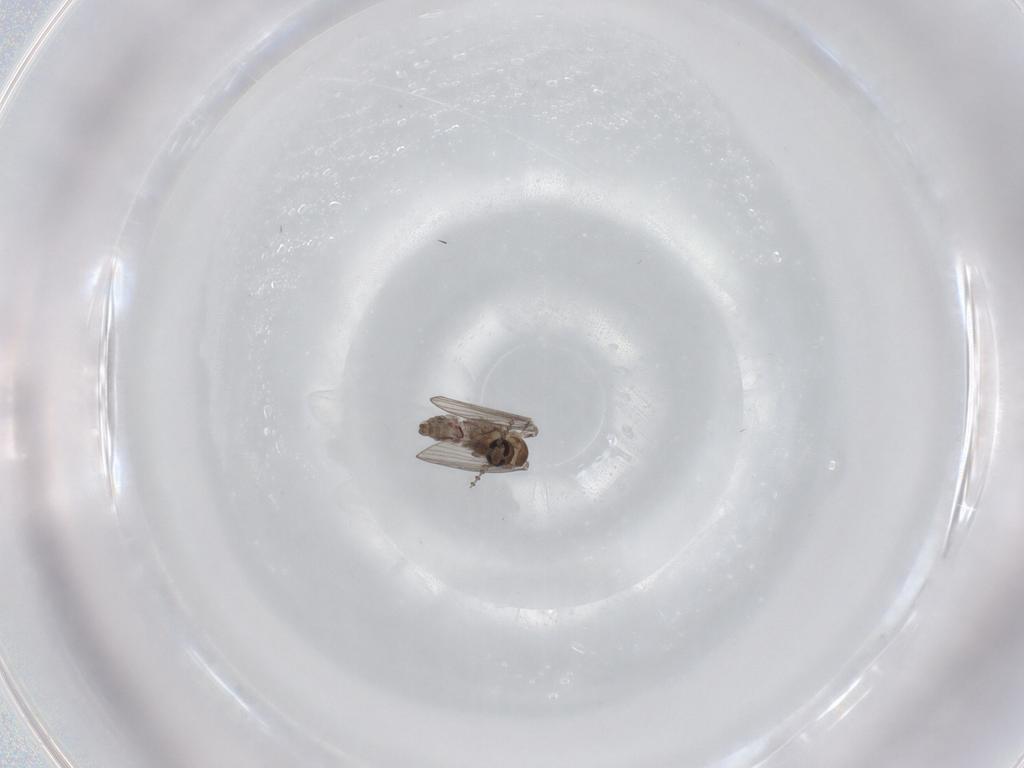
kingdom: Animalia
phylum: Arthropoda
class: Insecta
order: Diptera
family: Psychodidae
